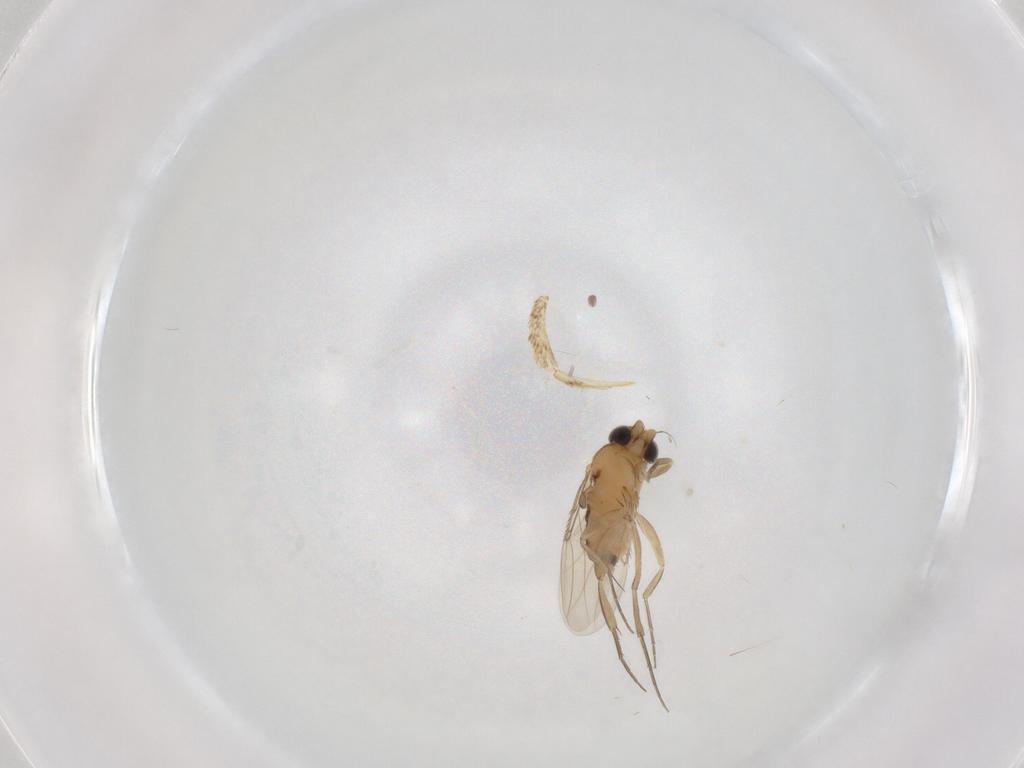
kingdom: Animalia
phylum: Arthropoda
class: Insecta
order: Diptera
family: Phoridae
